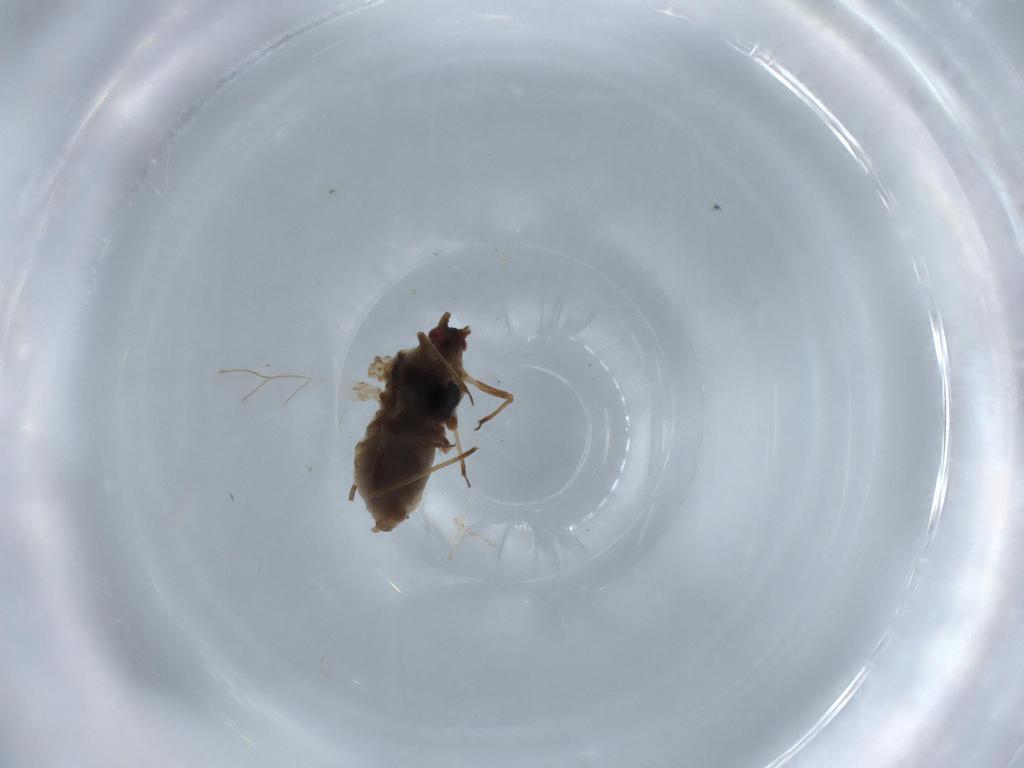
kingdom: Animalia
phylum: Arthropoda
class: Insecta
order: Hemiptera
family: Aphididae
